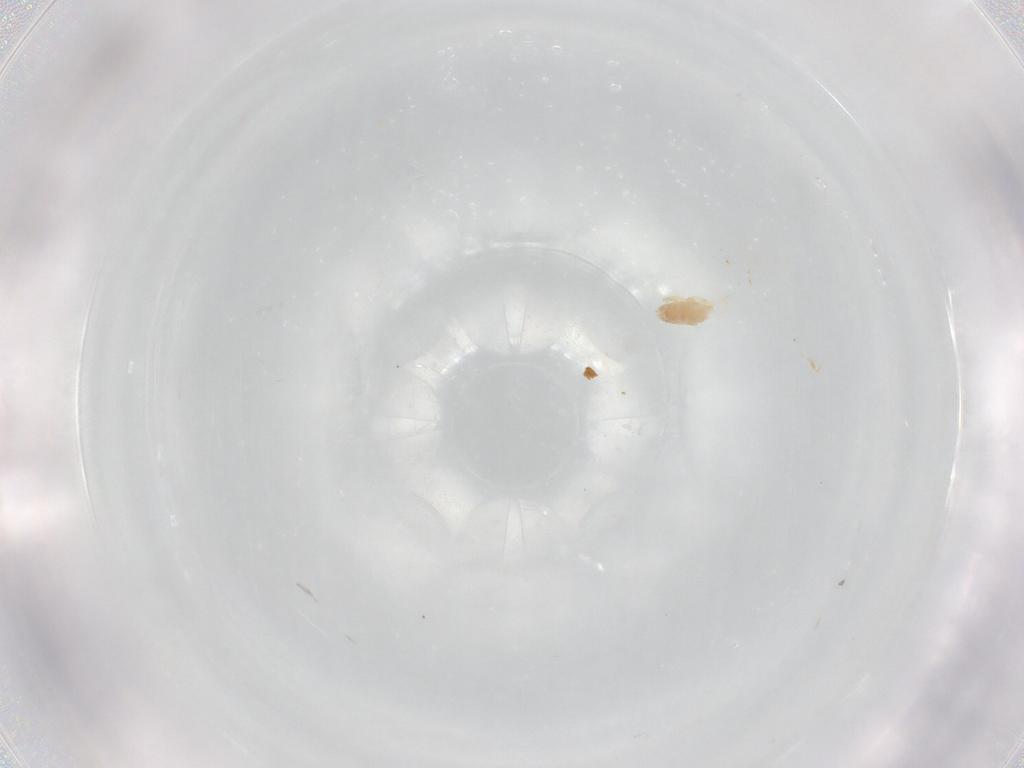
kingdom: Animalia
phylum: Arthropoda
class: Arachnida
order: Trombidiformes
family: Eupodidae
